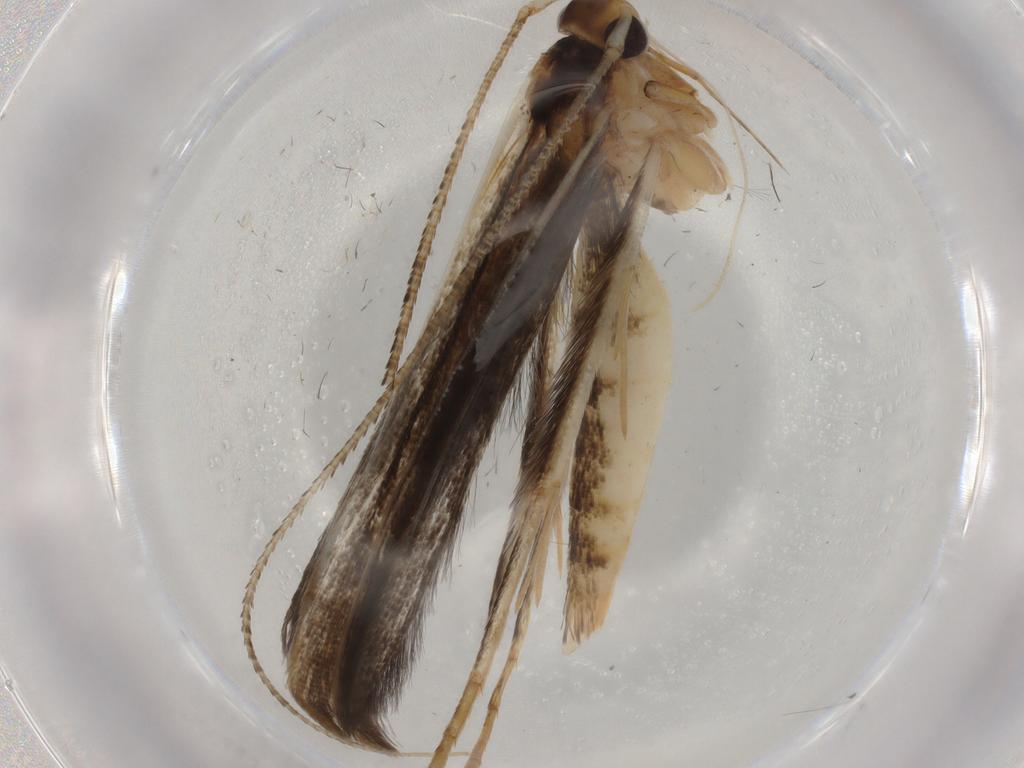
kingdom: Animalia
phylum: Arthropoda
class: Insecta
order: Lepidoptera
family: Gracillariidae
